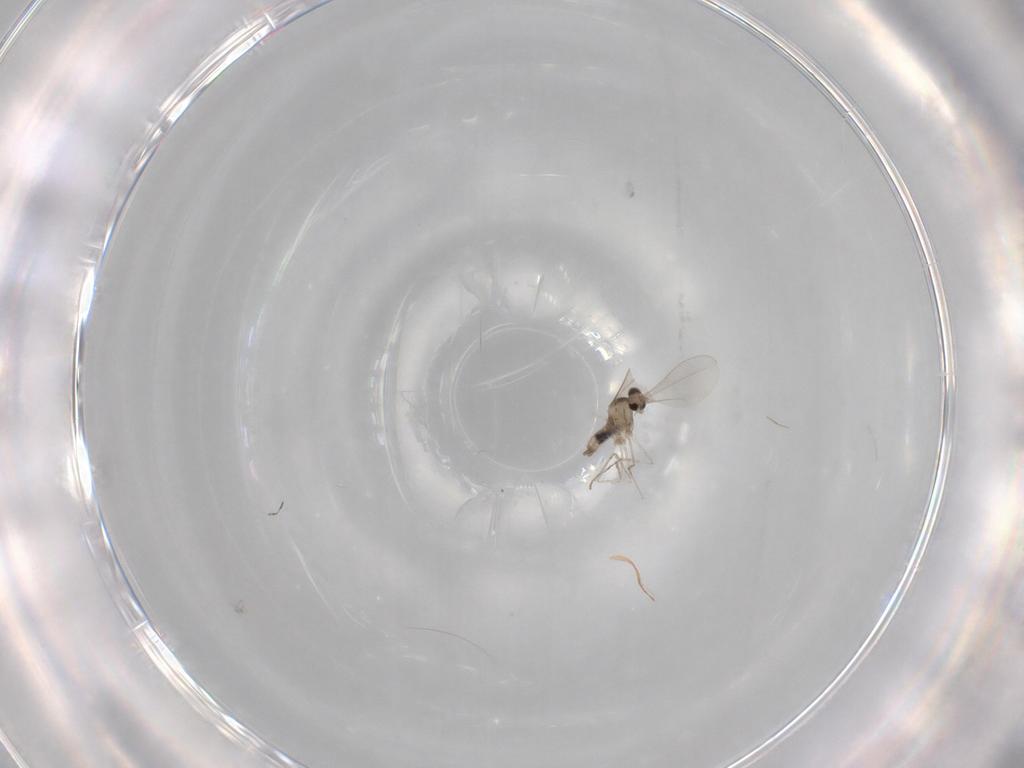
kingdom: Animalia
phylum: Arthropoda
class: Insecta
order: Diptera
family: Cecidomyiidae
